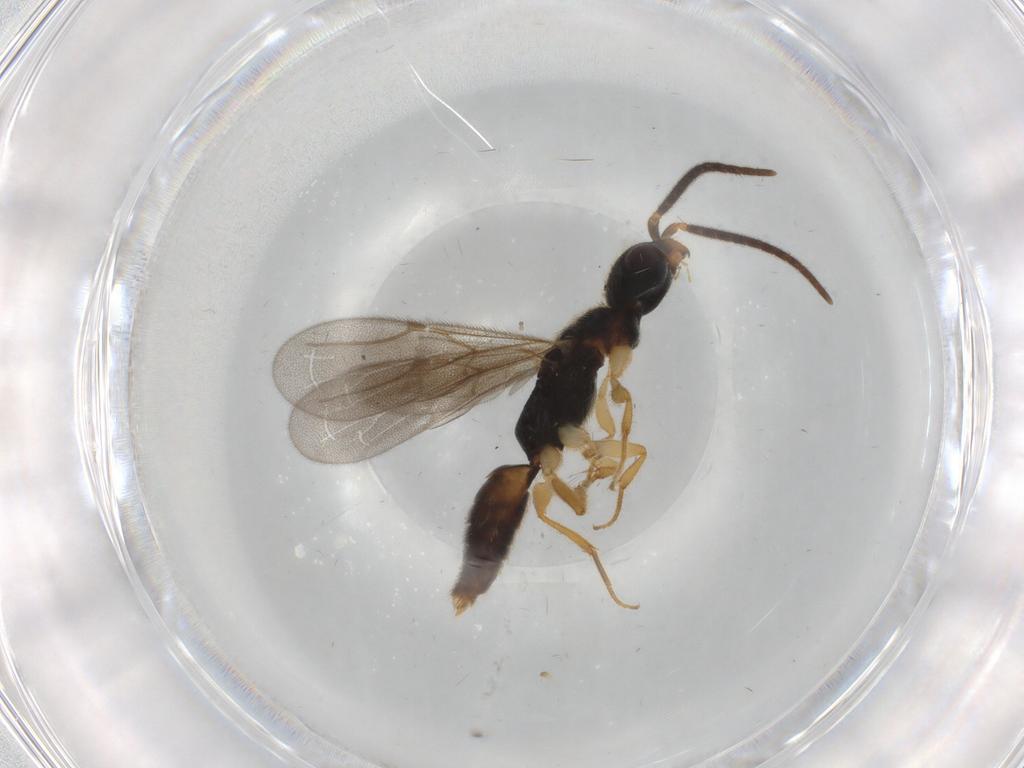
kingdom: Animalia
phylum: Arthropoda
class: Insecta
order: Hymenoptera
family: Bethylidae
